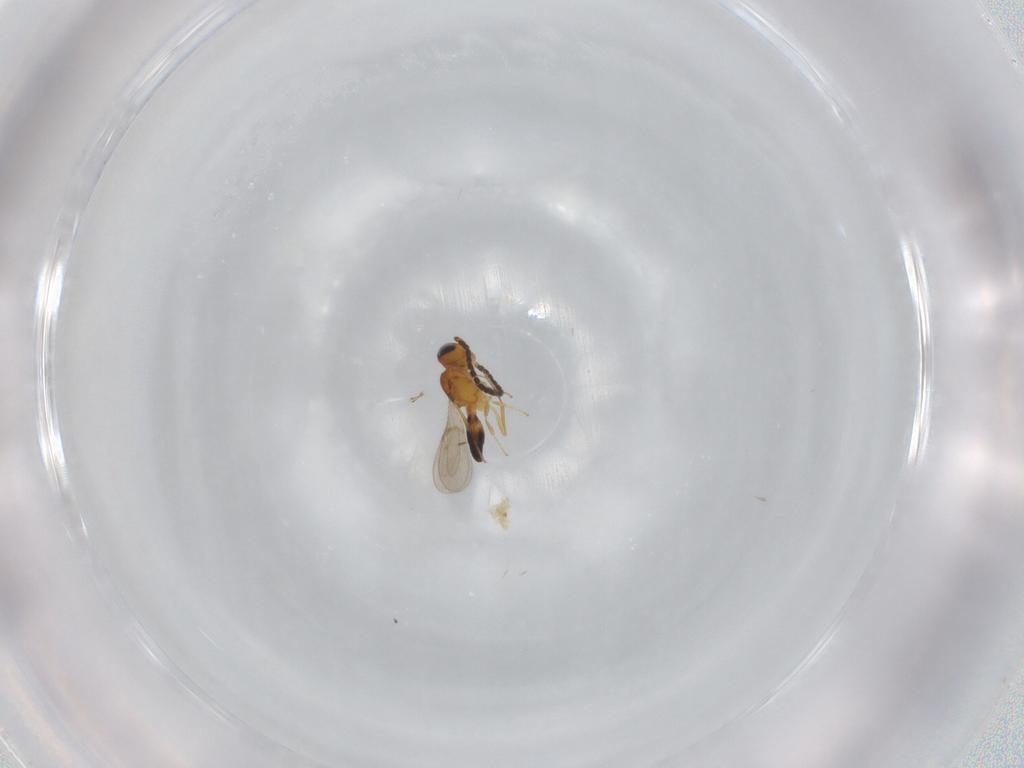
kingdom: Animalia
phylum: Arthropoda
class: Insecta
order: Hymenoptera
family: Scelionidae
